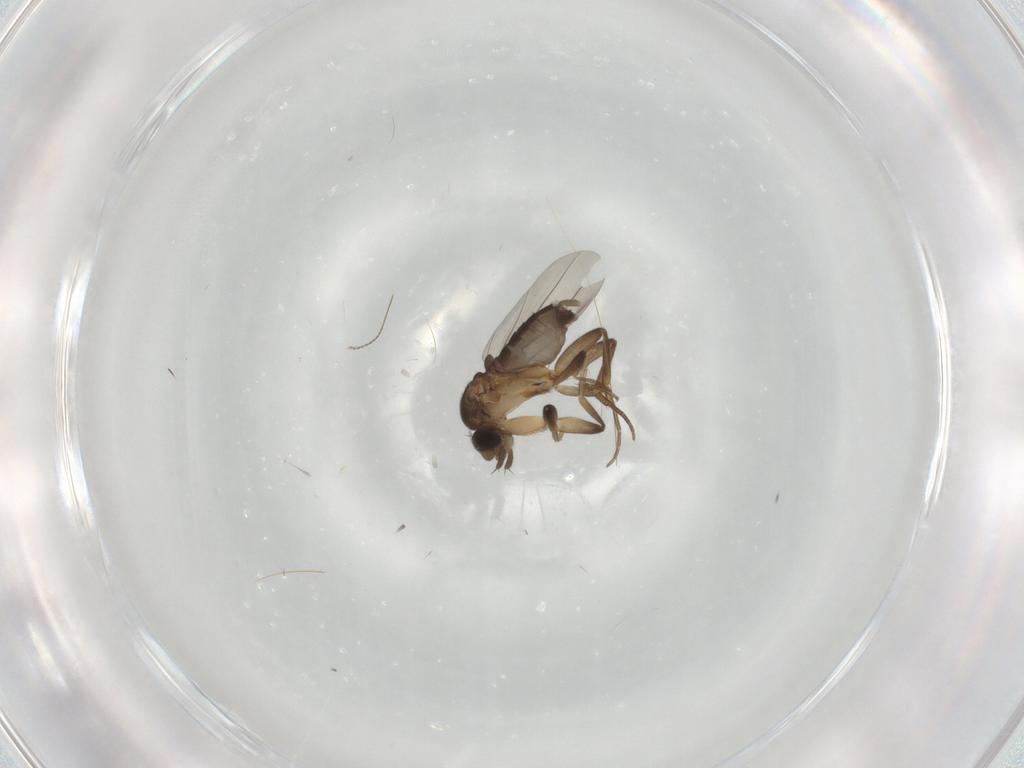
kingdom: Animalia
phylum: Arthropoda
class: Insecta
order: Diptera
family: Phoridae
